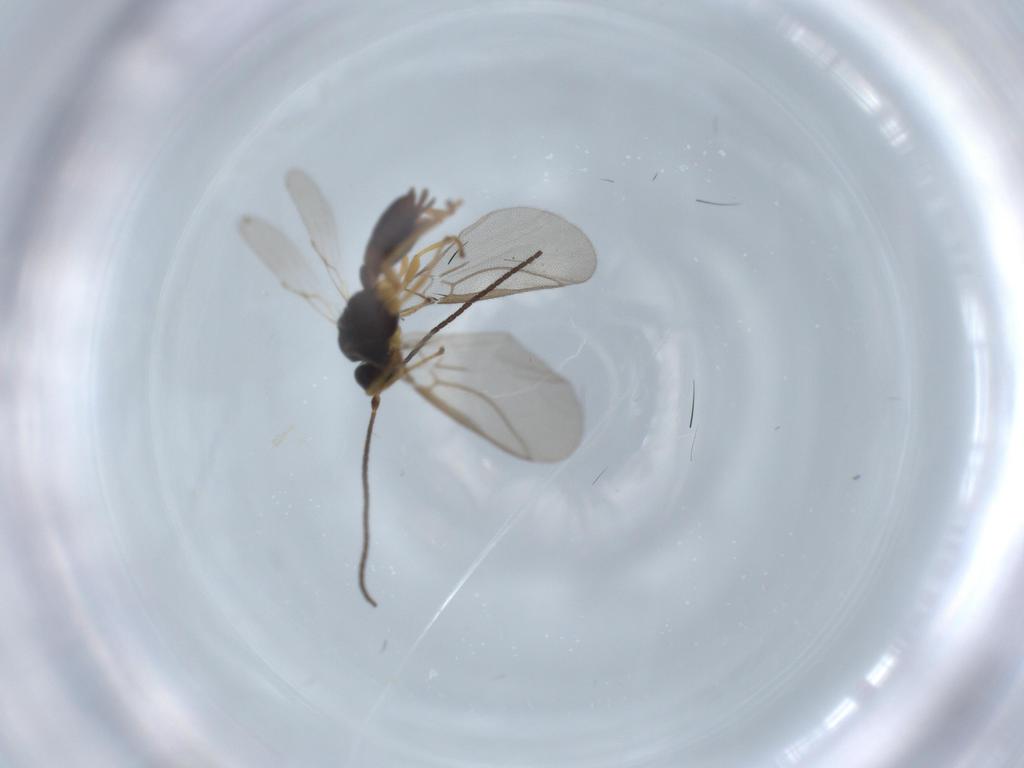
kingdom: Animalia
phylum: Arthropoda
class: Insecta
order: Hymenoptera
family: Braconidae
